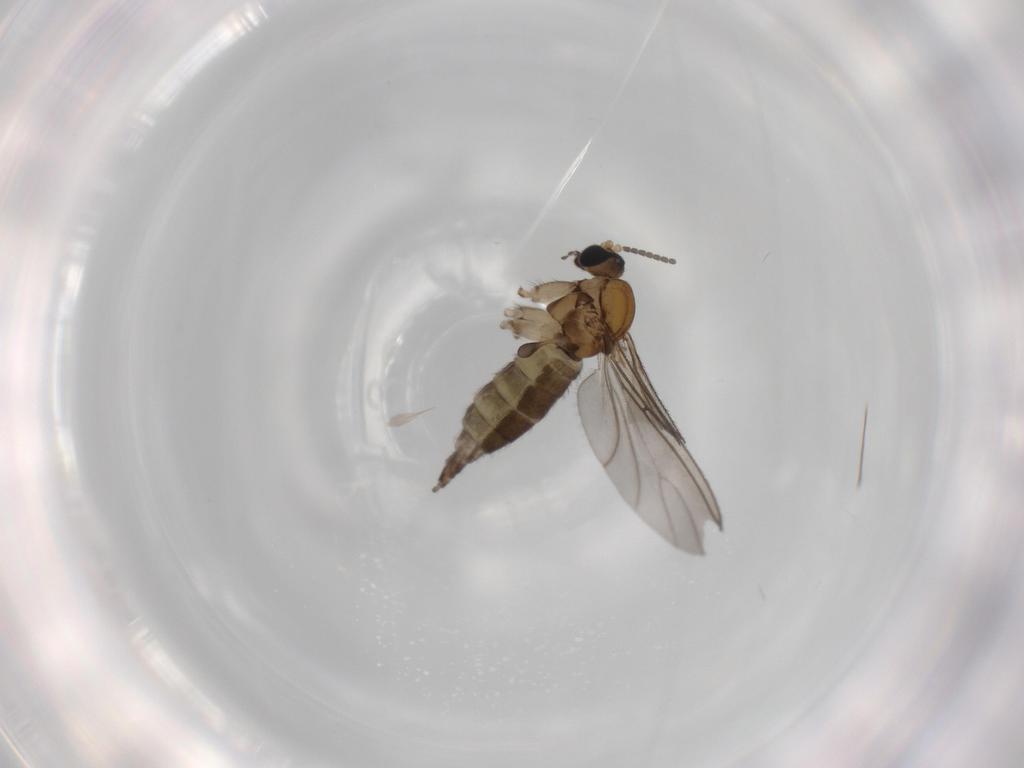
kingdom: Animalia
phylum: Arthropoda
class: Insecta
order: Diptera
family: Sciaridae
